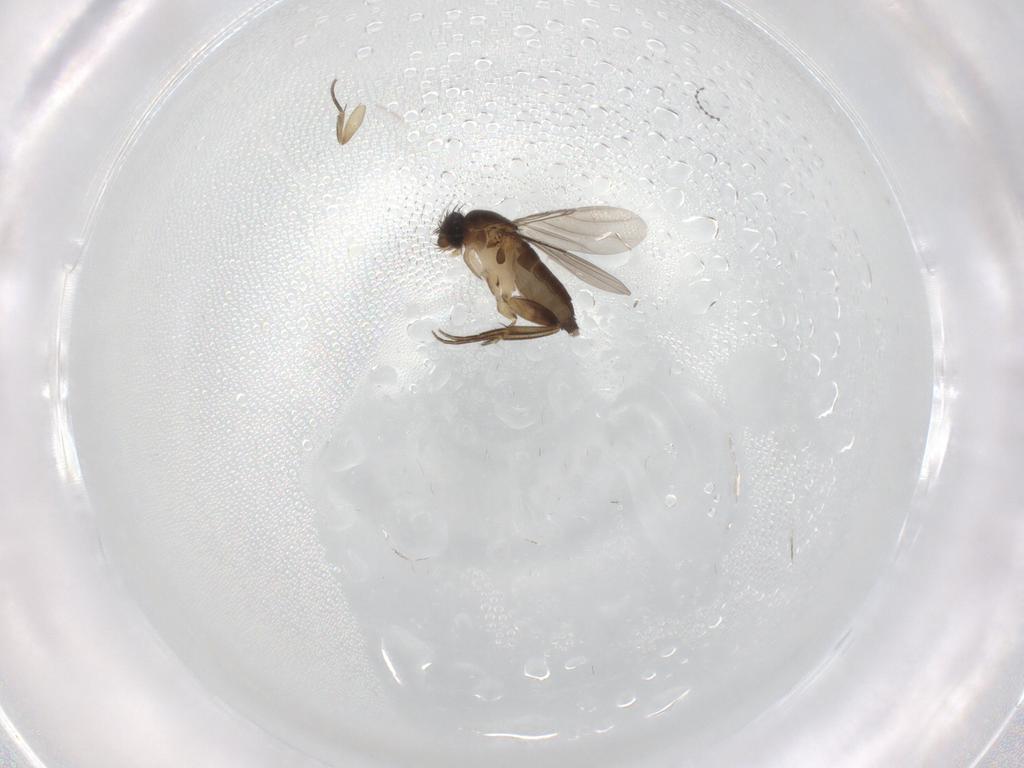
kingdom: Animalia
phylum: Arthropoda
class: Insecta
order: Diptera
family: Phoridae
